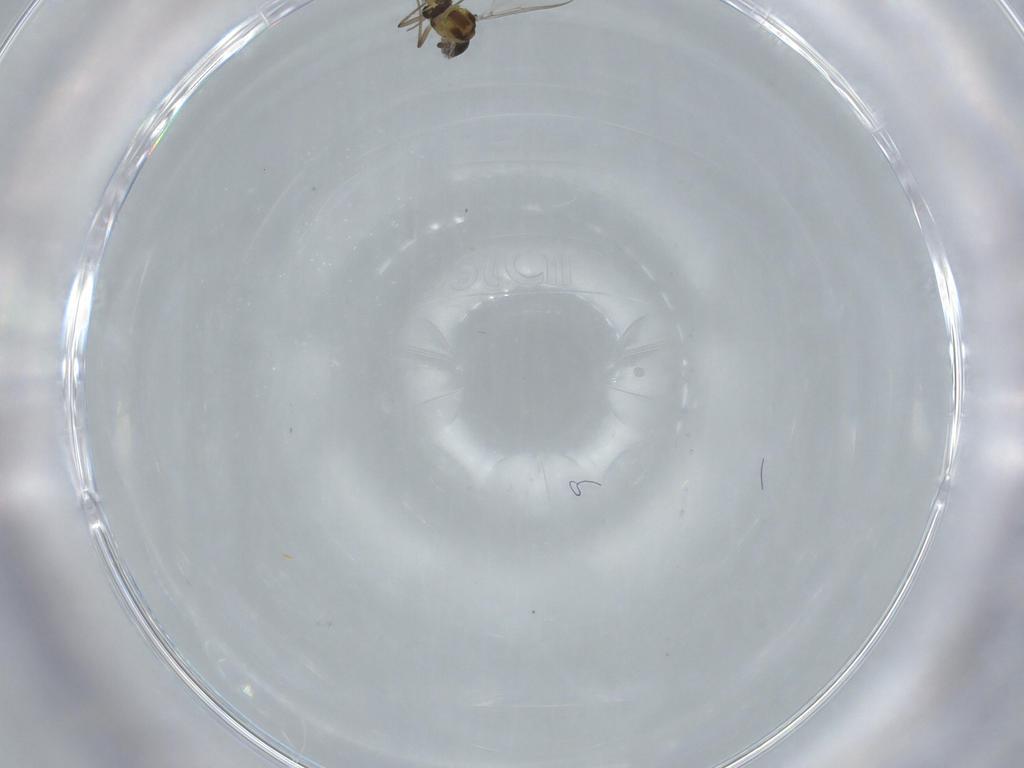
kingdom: Animalia
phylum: Arthropoda
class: Insecta
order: Diptera
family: Chironomidae
